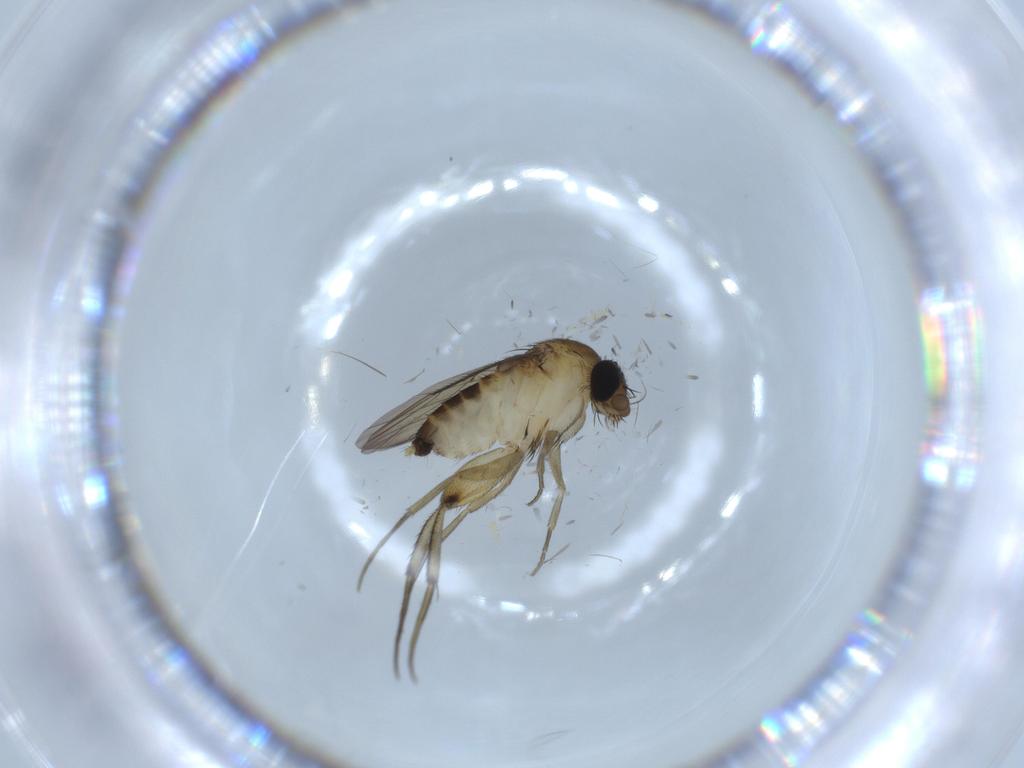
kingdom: Animalia
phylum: Arthropoda
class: Insecta
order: Diptera
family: Phoridae
